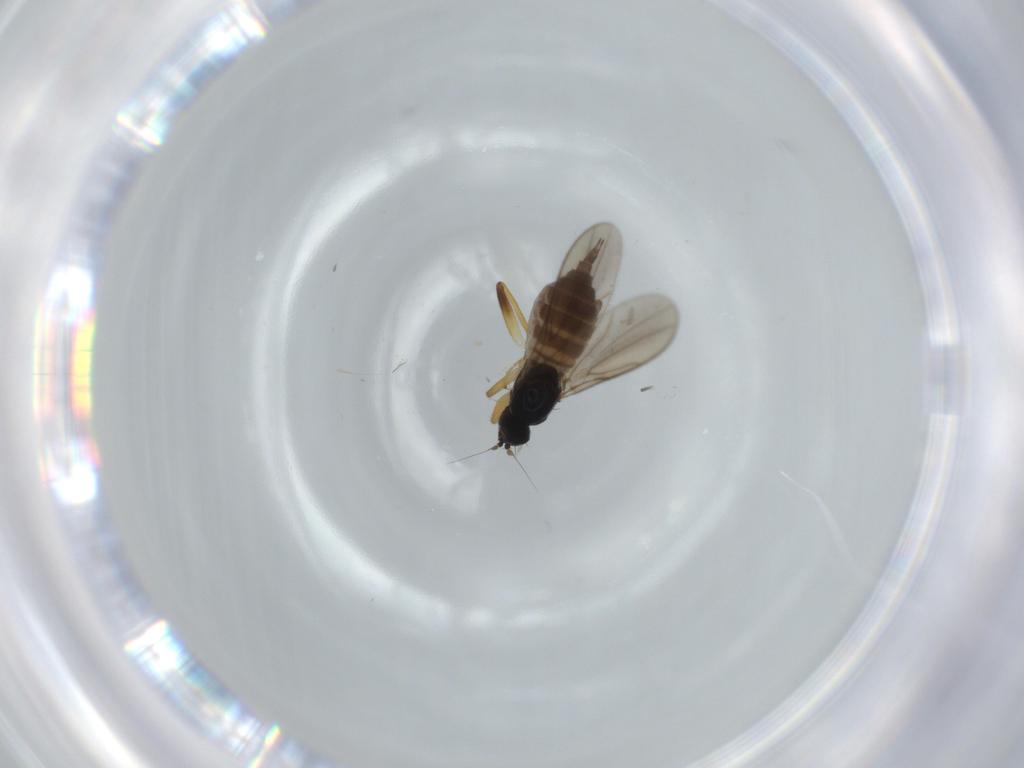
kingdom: Animalia
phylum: Arthropoda
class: Insecta
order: Diptera
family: Hybotidae
